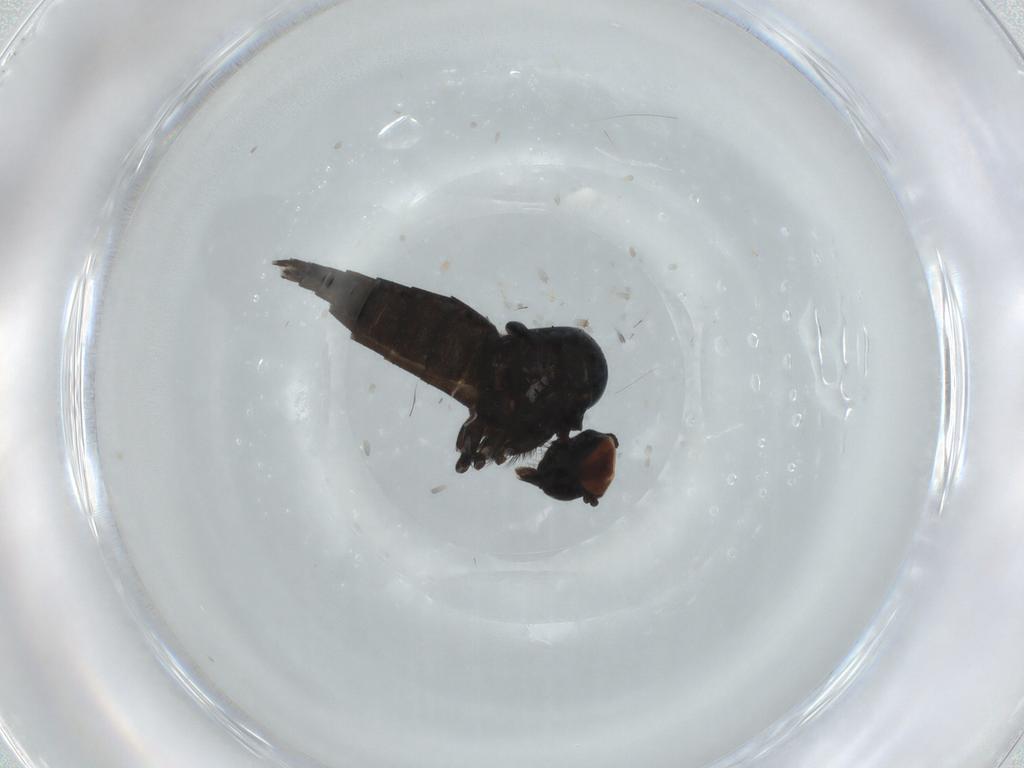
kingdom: Animalia
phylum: Arthropoda
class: Insecta
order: Diptera
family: Hybotidae
